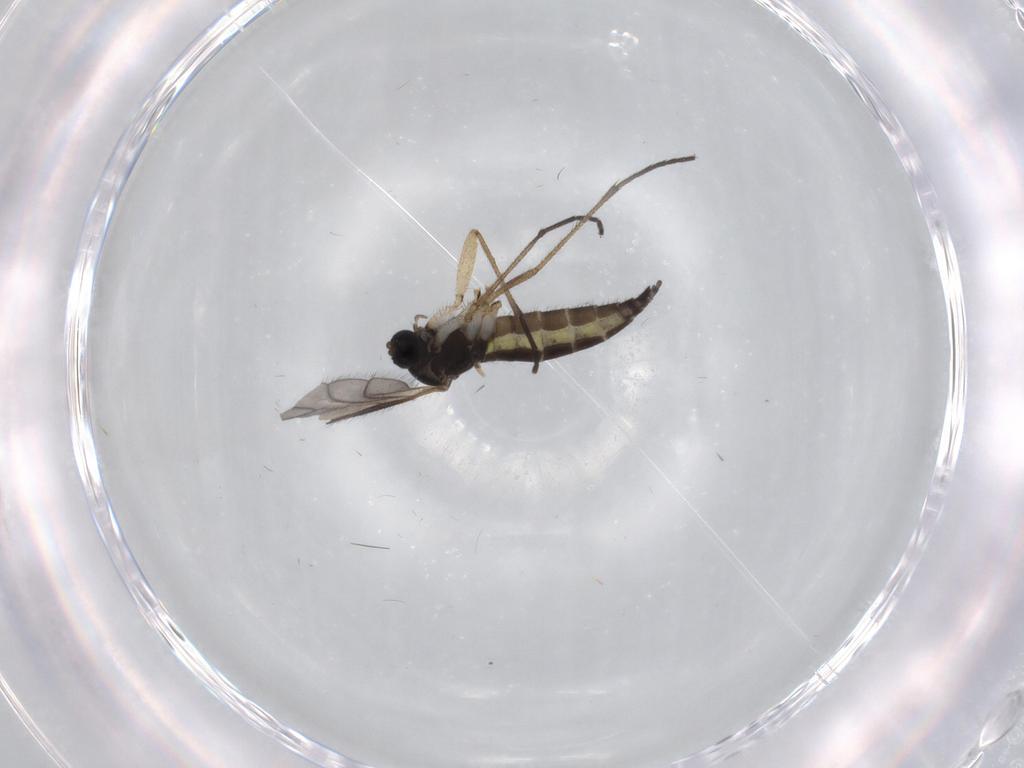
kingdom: Animalia
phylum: Arthropoda
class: Insecta
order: Diptera
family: Sciaridae
